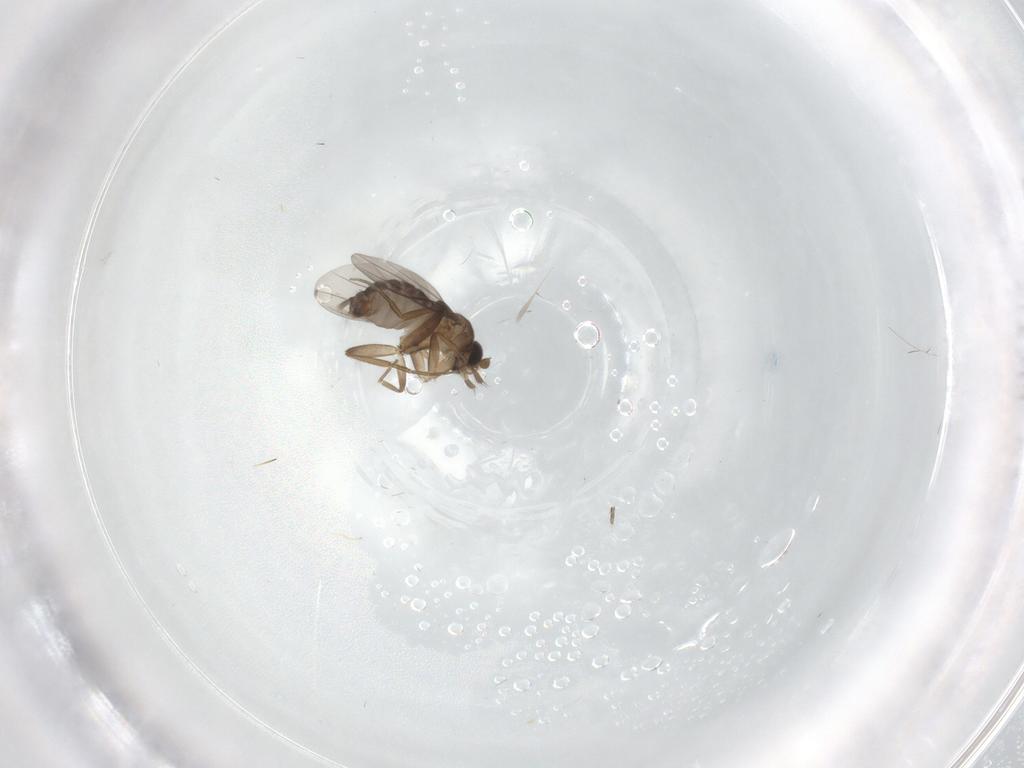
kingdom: Animalia
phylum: Arthropoda
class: Insecta
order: Diptera
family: Phoridae
